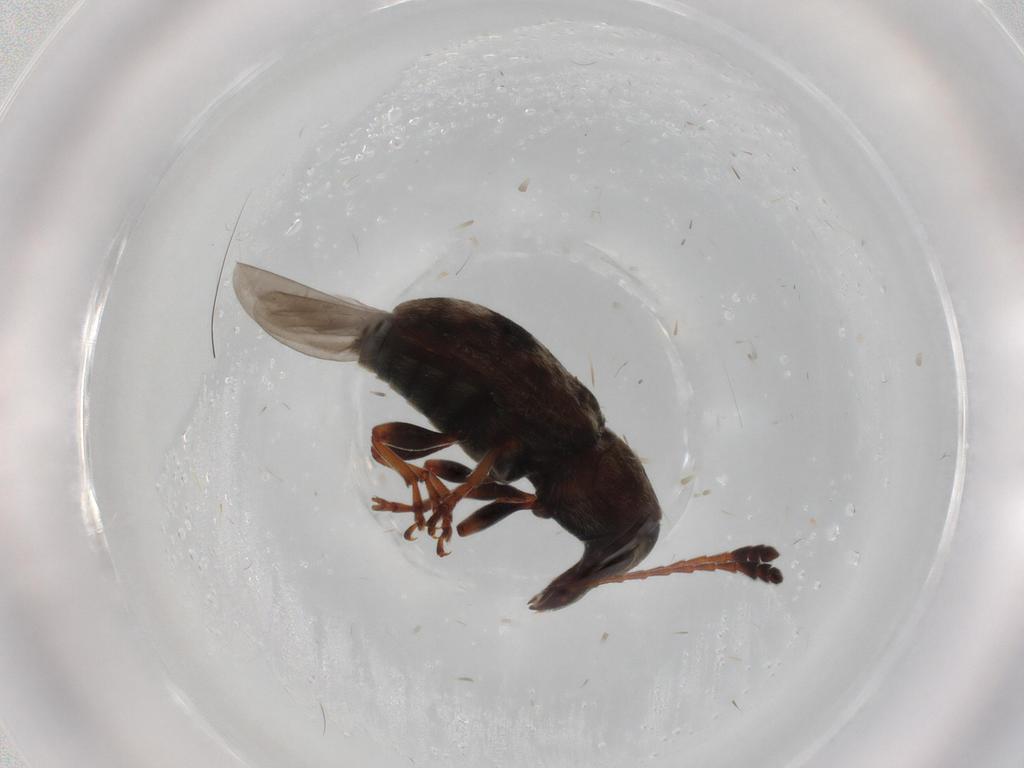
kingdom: Animalia
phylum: Arthropoda
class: Insecta
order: Coleoptera
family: Anthribidae
